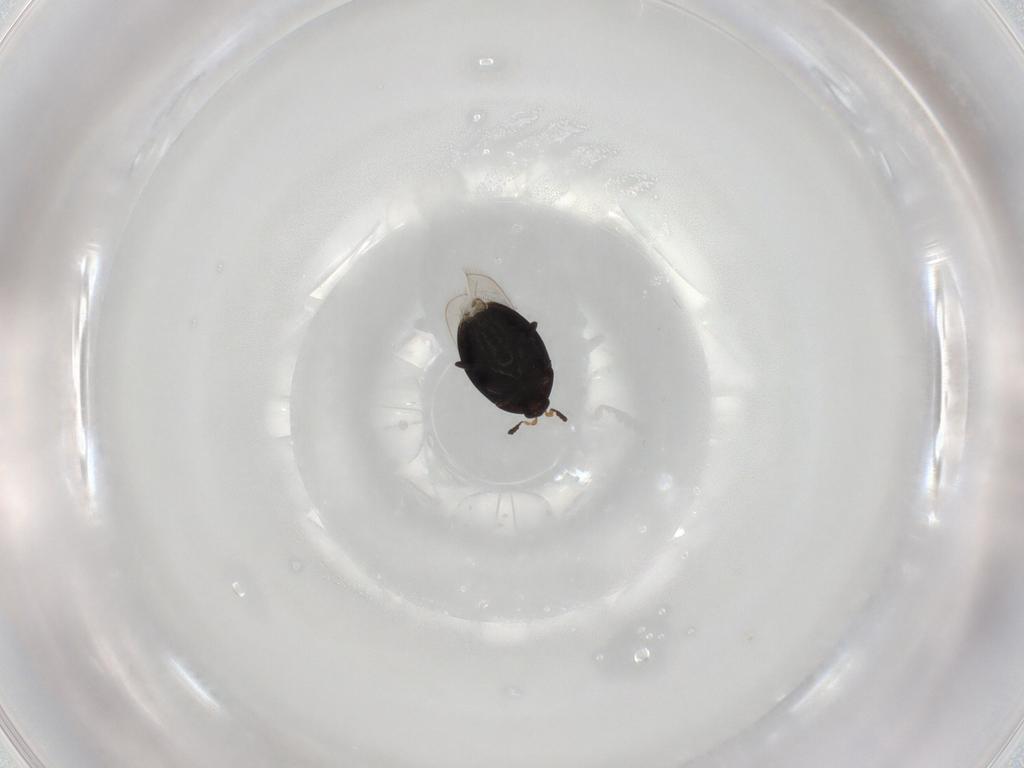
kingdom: Animalia
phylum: Arthropoda
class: Insecta
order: Coleoptera
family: Corylophidae
